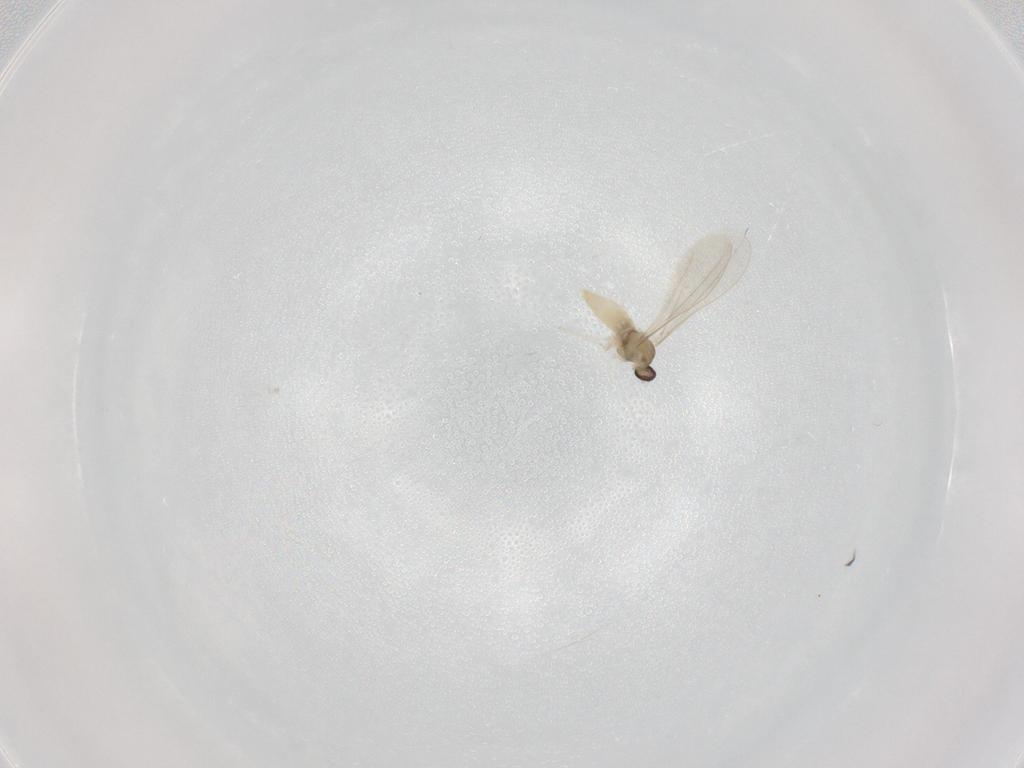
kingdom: Animalia
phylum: Arthropoda
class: Insecta
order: Diptera
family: Cecidomyiidae
